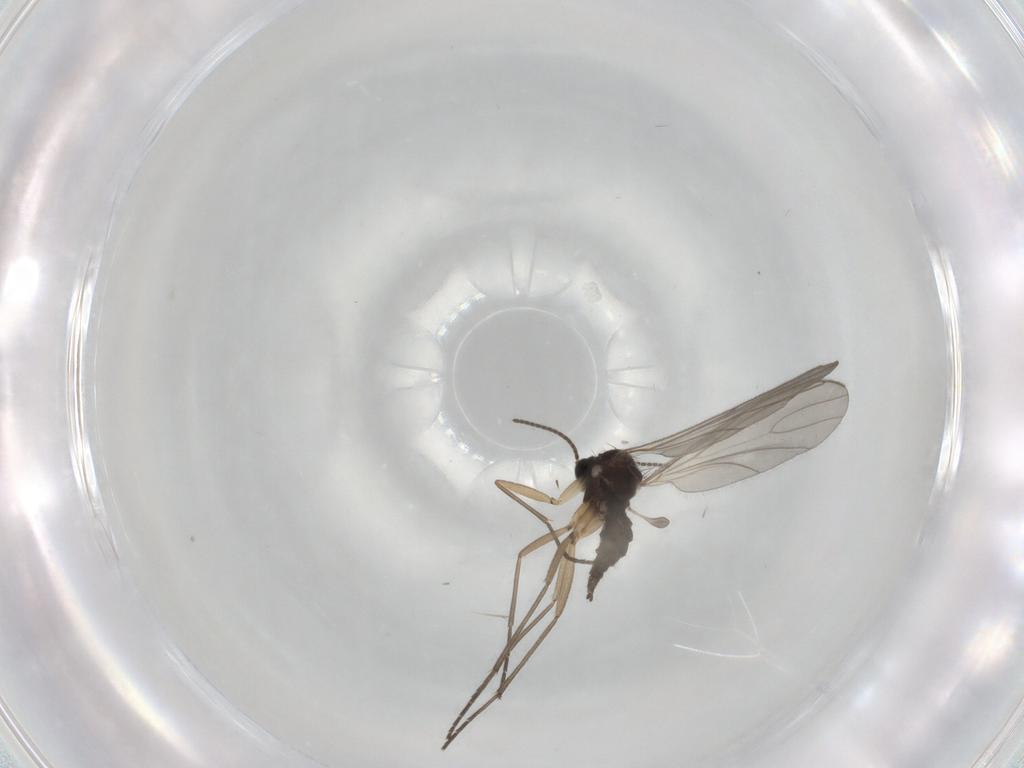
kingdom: Animalia
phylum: Arthropoda
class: Insecta
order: Diptera
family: Sciaridae
